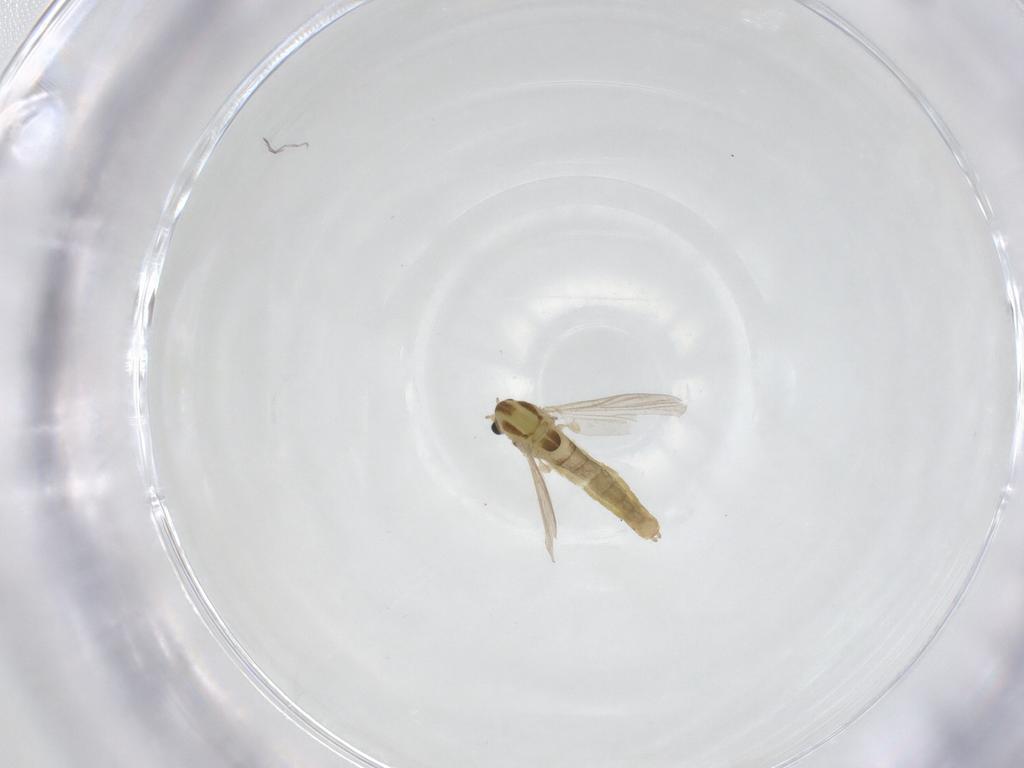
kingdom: Animalia
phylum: Arthropoda
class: Insecta
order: Diptera
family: Chironomidae
